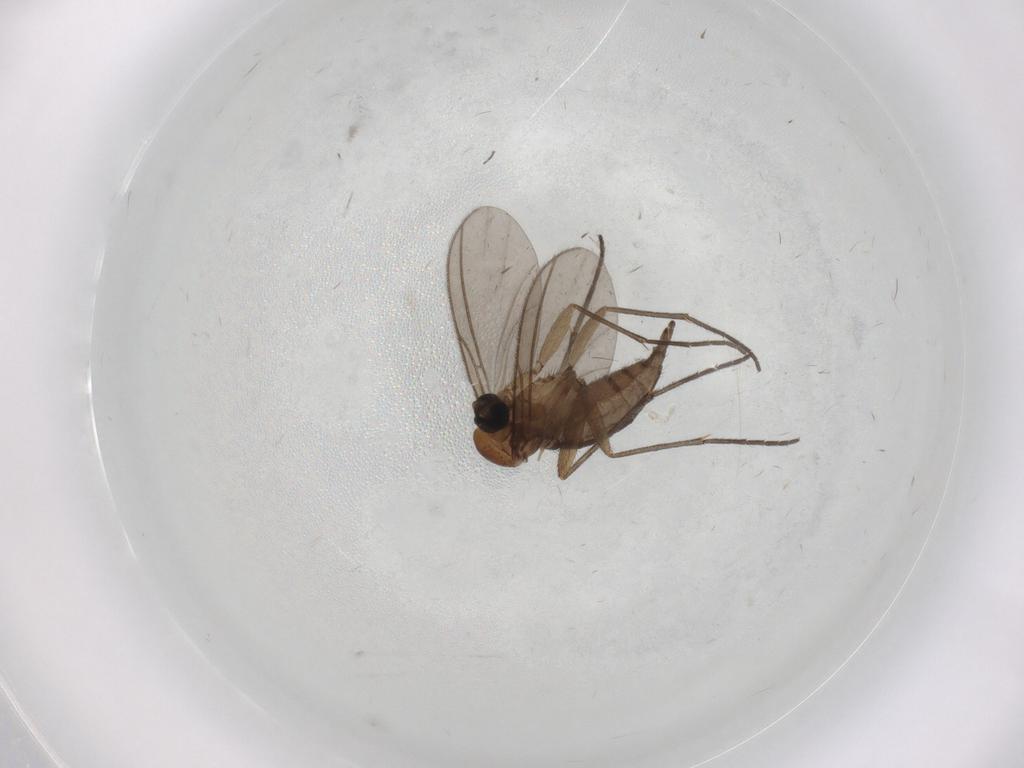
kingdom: Animalia
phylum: Arthropoda
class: Insecta
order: Diptera
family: Sciaridae
